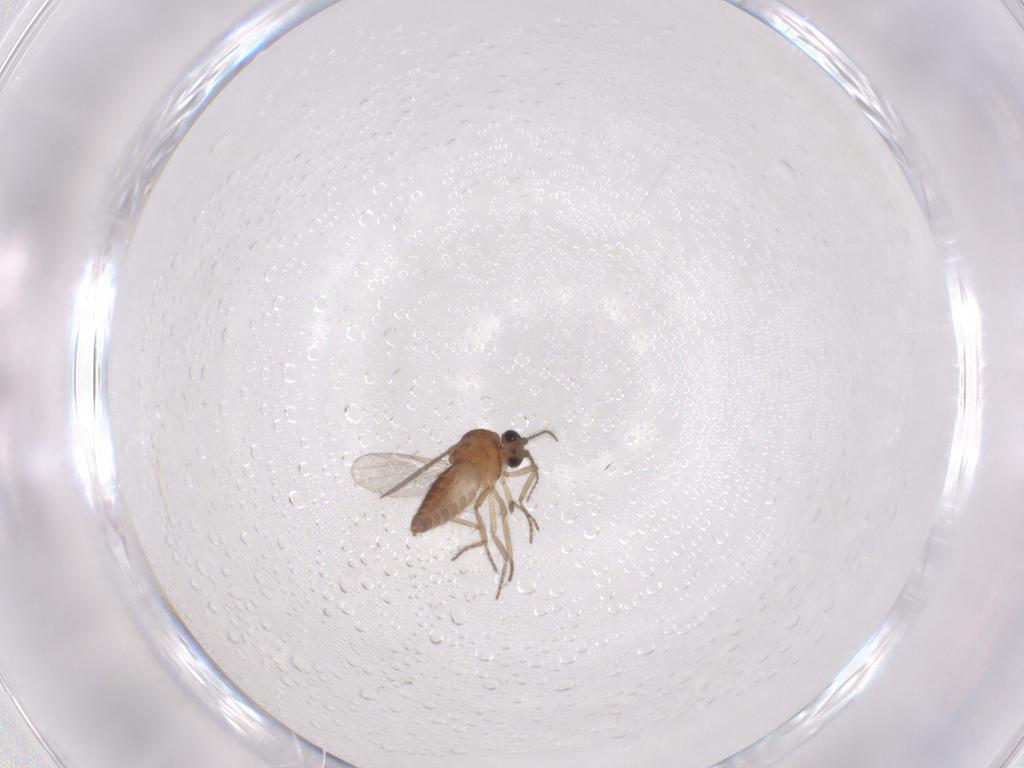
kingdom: Animalia
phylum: Arthropoda
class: Insecta
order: Diptera
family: Ceratopogonidae
